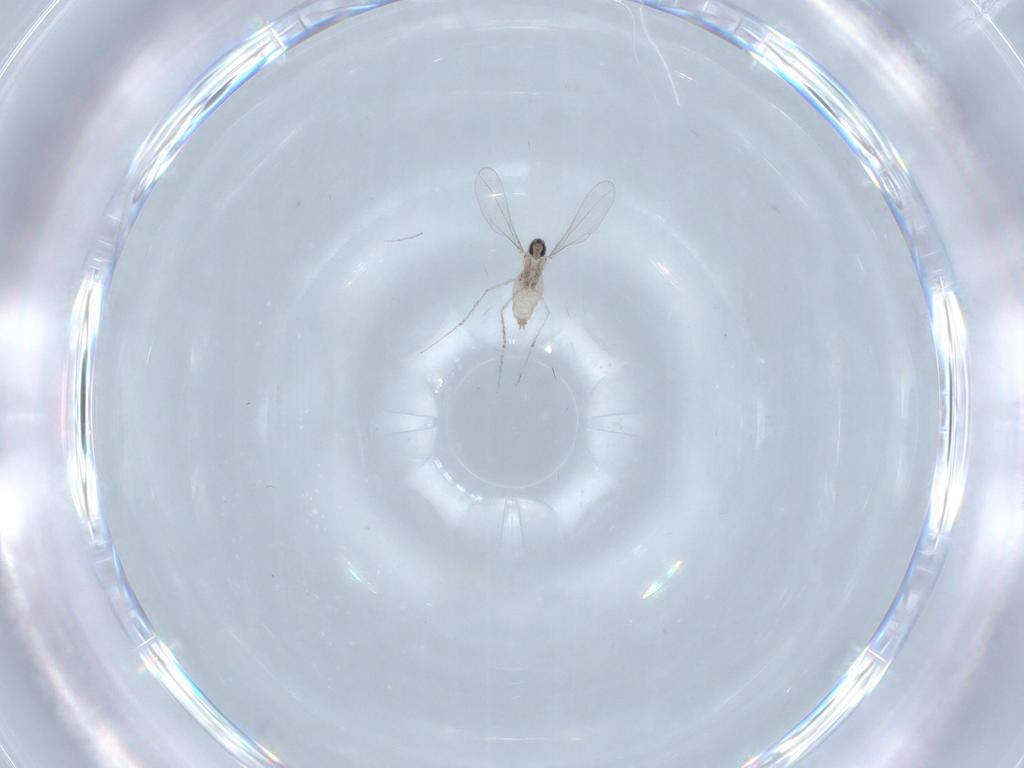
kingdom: Animalia
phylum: Arthropoda
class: Insecta
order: Diptera
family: Cecidomyiidae
